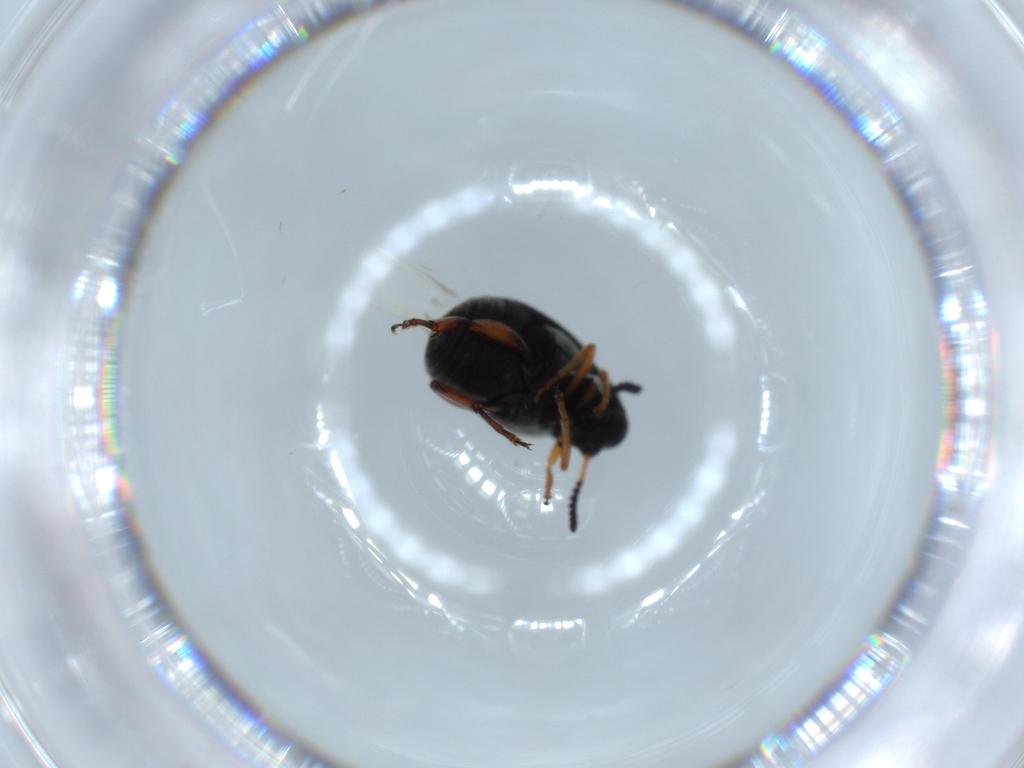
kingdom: Animalia
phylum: Arthropoda
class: Insecta
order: Coleoptera
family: Chrysomelidae
